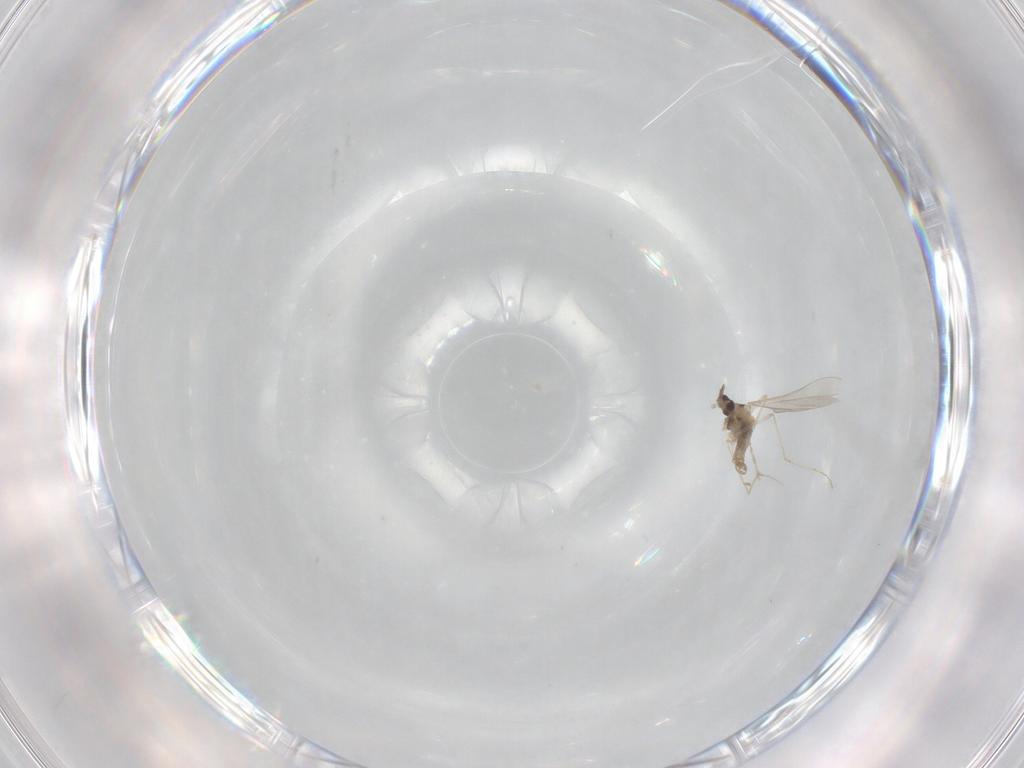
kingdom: Animalia
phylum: Arthropoda
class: Insecta
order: Diptera
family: Cecidomyiidae
